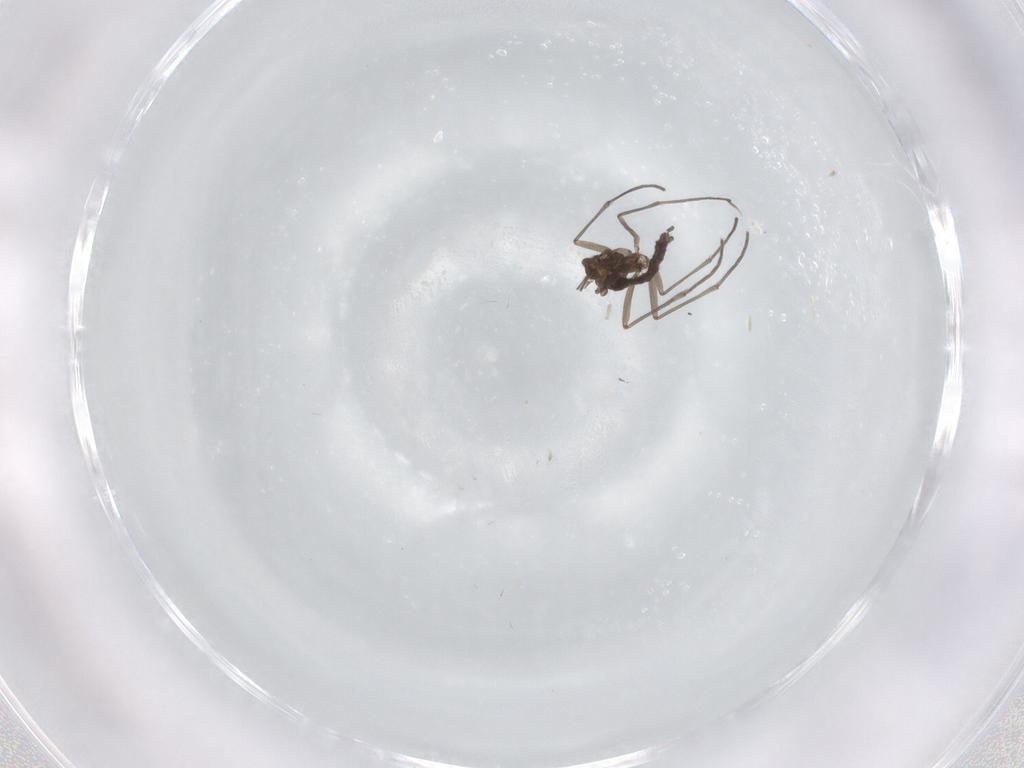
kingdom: Animalia
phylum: Arthropoda
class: Insecta
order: Diptera
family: Sciaridae
